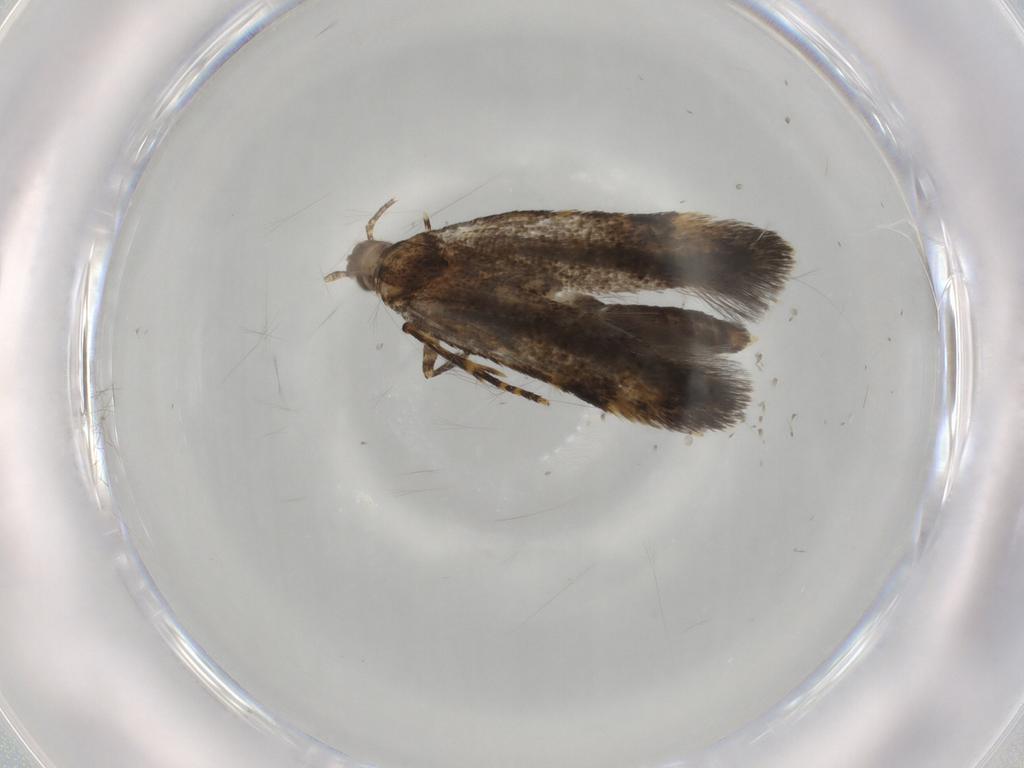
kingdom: Animalia
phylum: Arthropoda
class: Insecta
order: Lepidoptera
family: Oecophoridae
